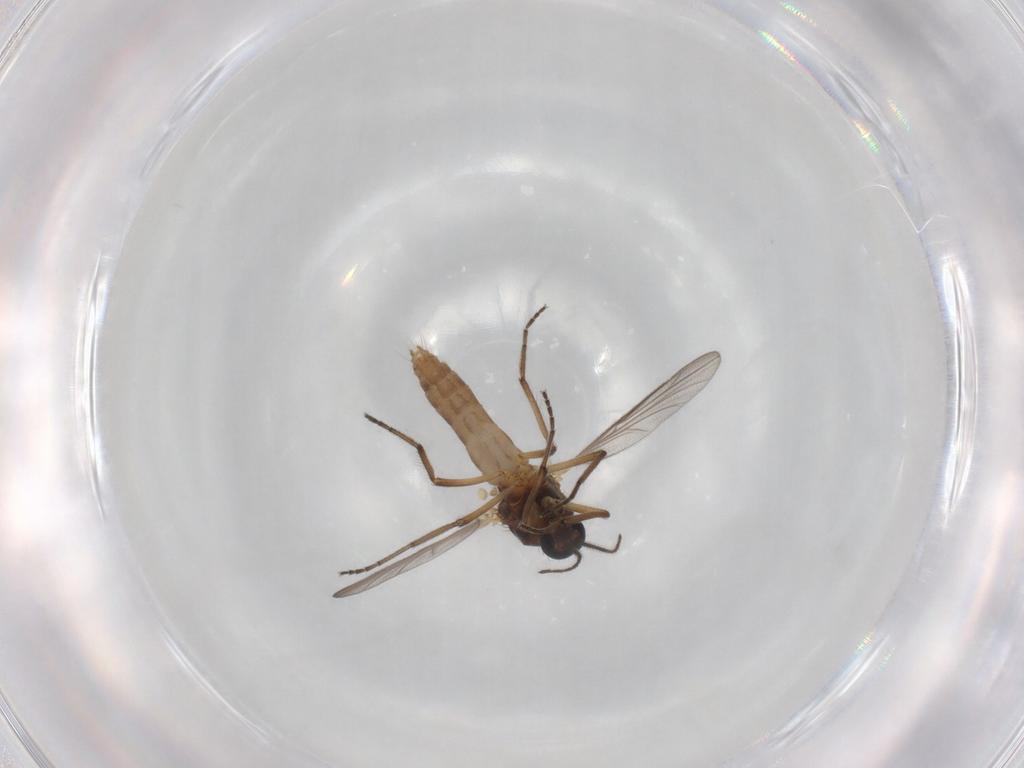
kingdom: Animalia
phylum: Arthropoda
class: Insecta
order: Diptera
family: Ceratopogonidae
